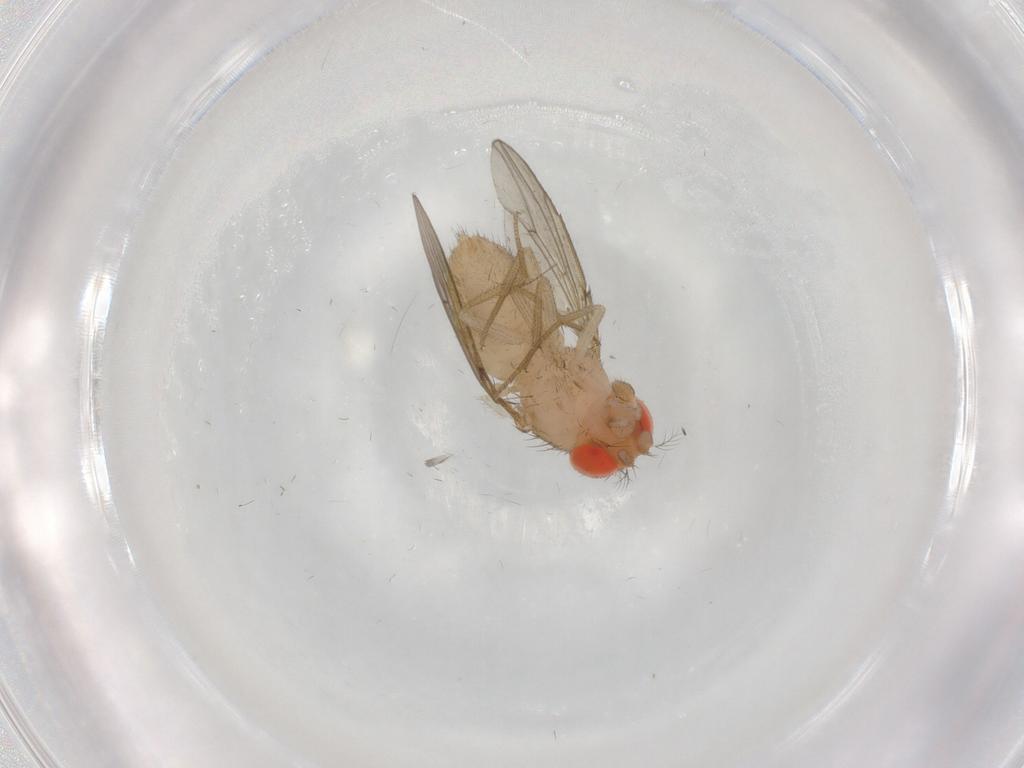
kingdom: Animalia
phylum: Arthropoda
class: Insecta
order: Diptera
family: Drosophilidae
